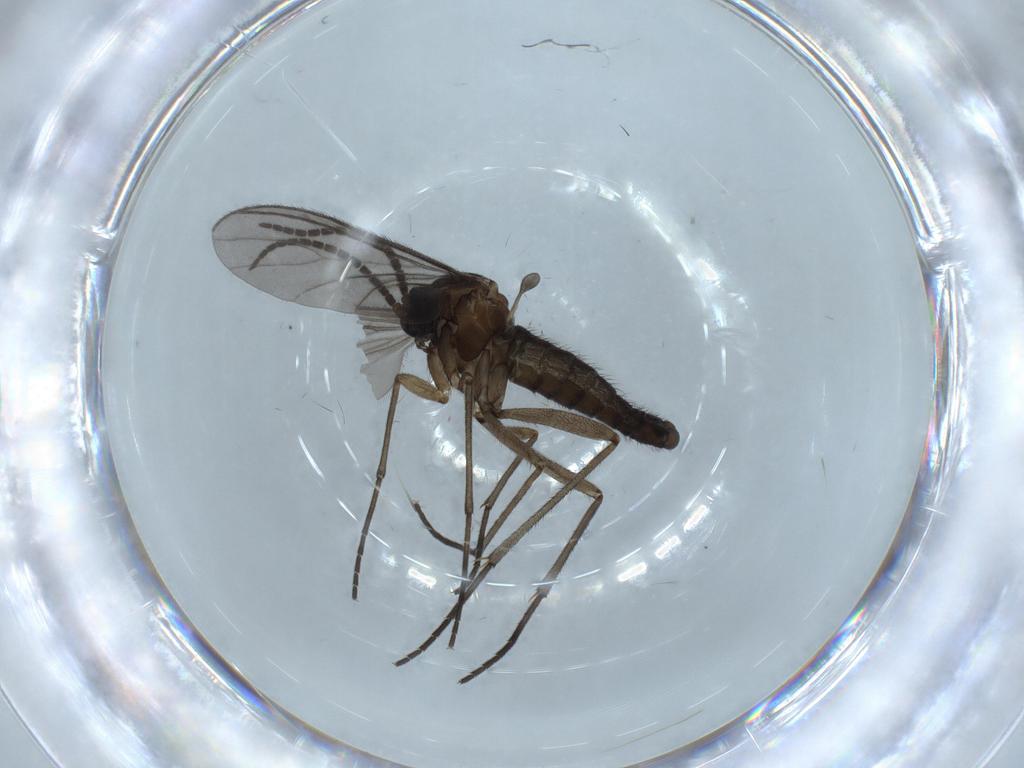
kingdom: Animalia
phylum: Arthropoda
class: Insecta
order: Diptera
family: Sciaridae
